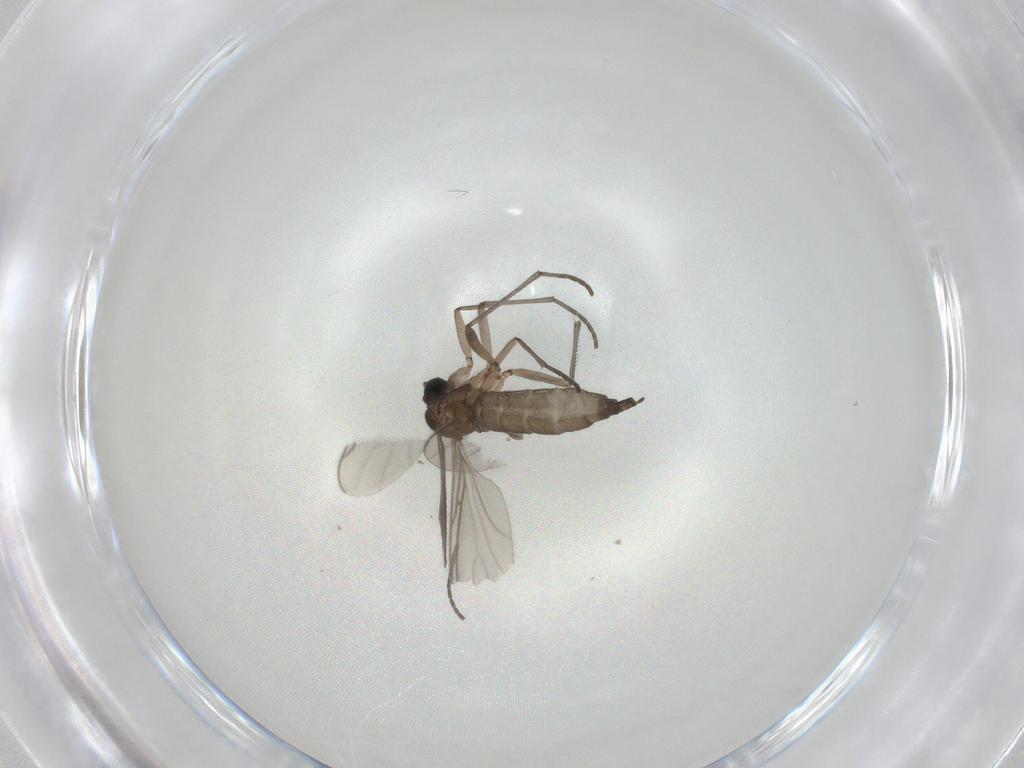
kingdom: Animalia
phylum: Arthropoda
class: Insecta
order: Diptera
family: Sciaridae
